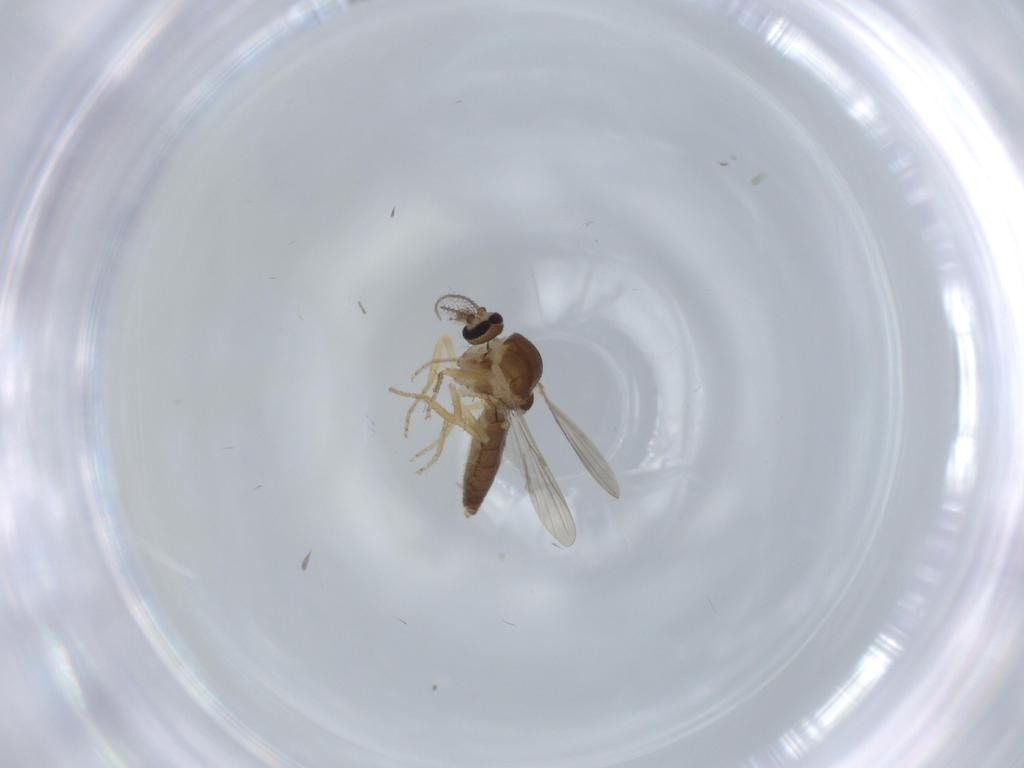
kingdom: Animalia
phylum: Arthropoda
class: Insecta
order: Diptera
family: Ceratopogonidae
